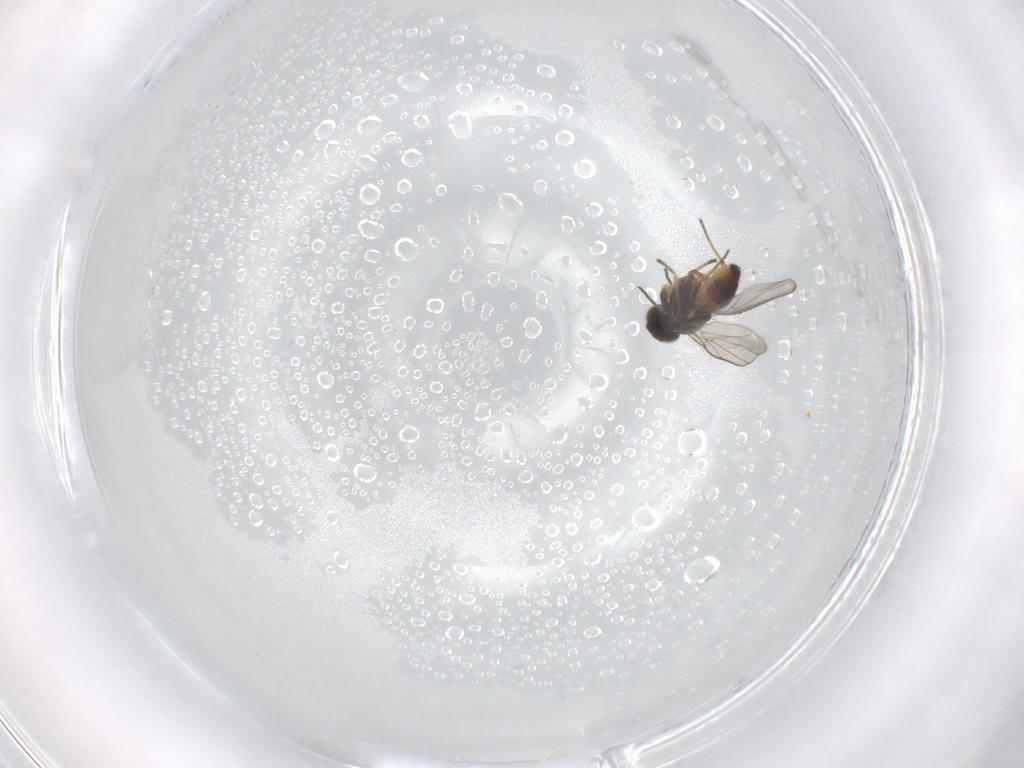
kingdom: Animalia
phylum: Arthropoda
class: Insecta
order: Diptera
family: Chloropidae
